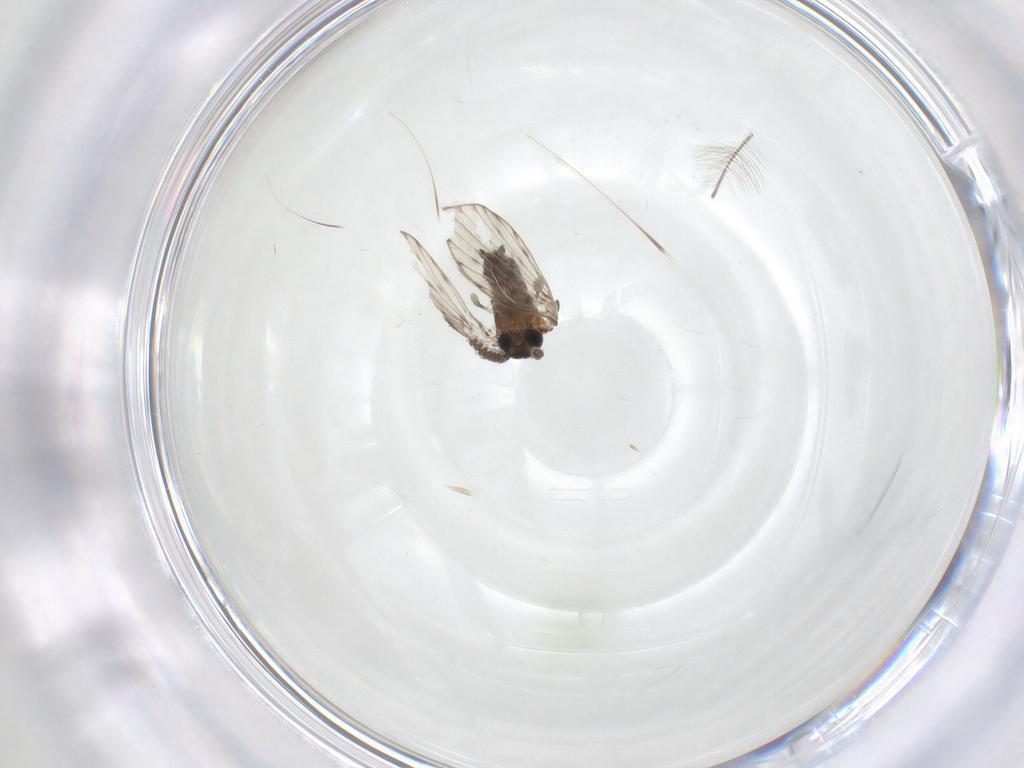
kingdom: Animalia
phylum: Arthropoda
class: Insecta
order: Diptera
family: Psychodidae
